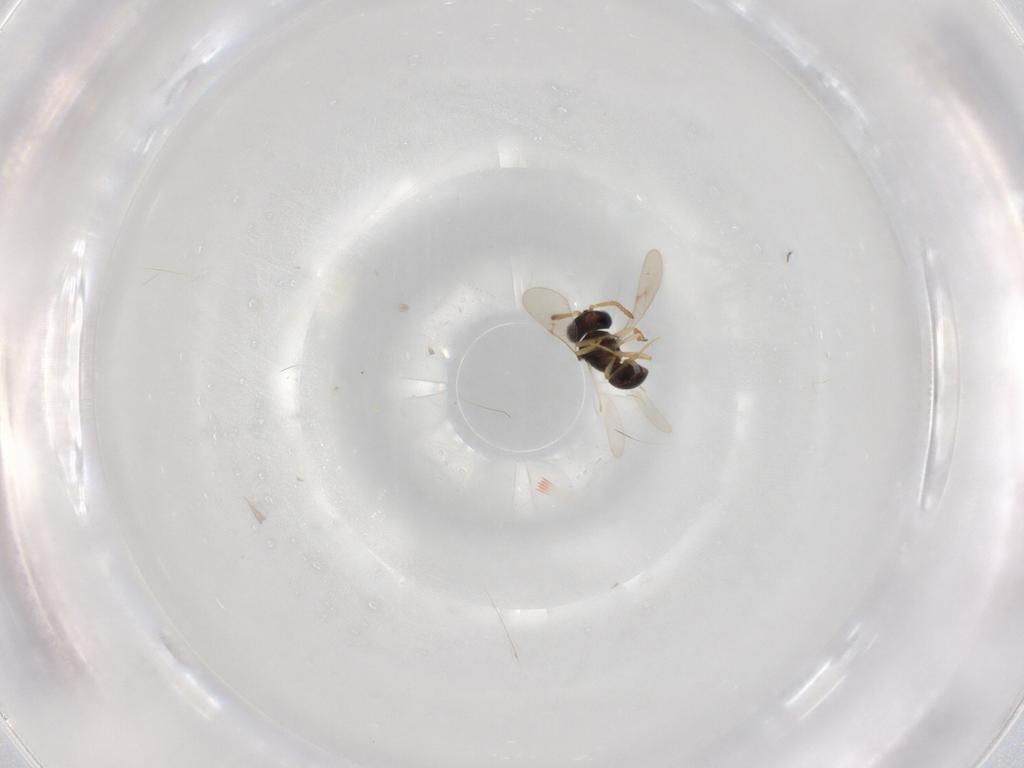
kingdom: Animalia
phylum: Arthropoda
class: Insecta
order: Hymenoptera
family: Scelionidae
